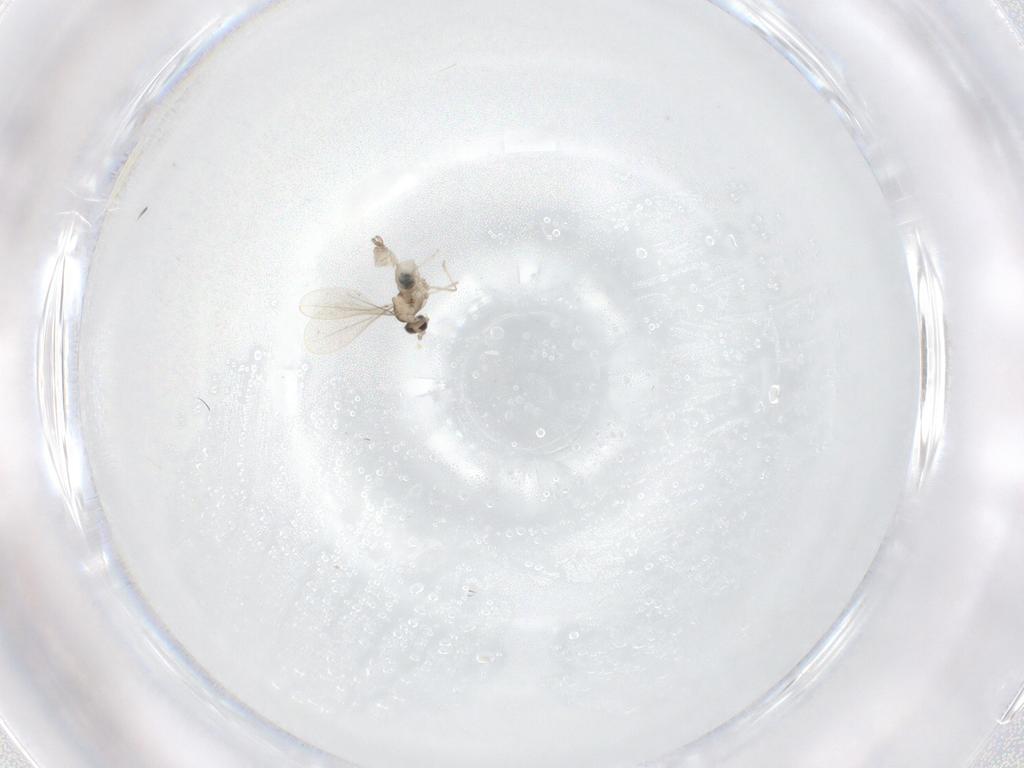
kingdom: Animalia
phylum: Arthropoda
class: Insecta
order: Diptera
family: Cecidomyiidae
